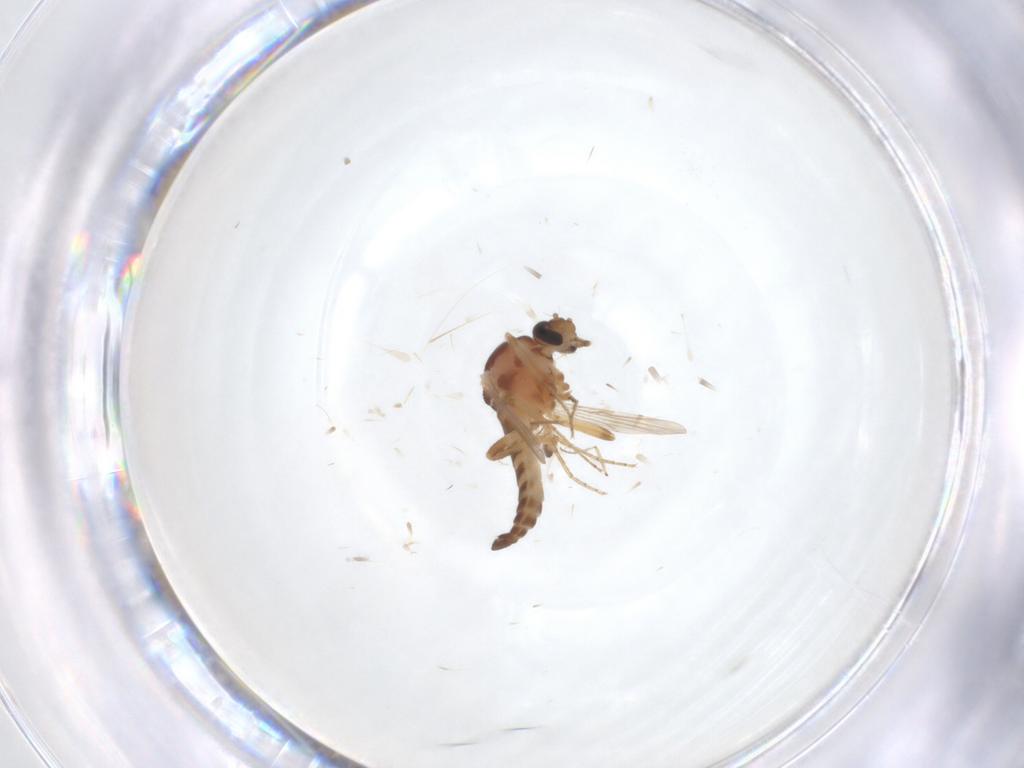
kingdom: Animalia
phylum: Arthropoda
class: Insecta
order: Diptera
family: Ceratopogonidae
